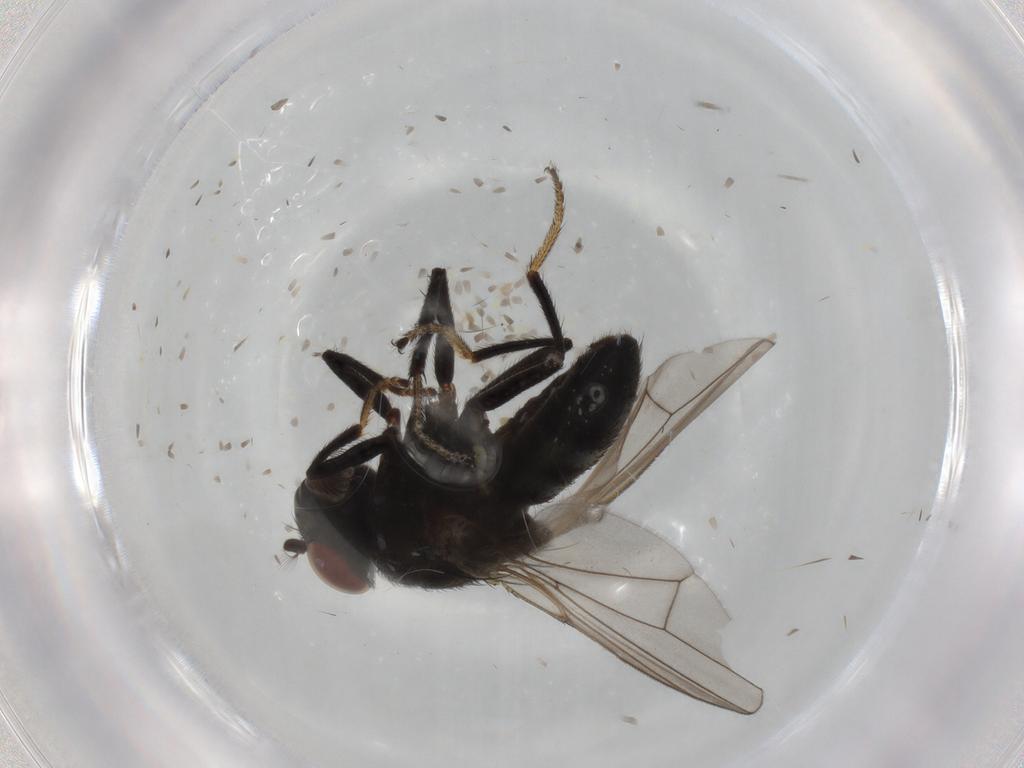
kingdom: Animalia
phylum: Arthropoda
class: Insecta
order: Diptera
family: Ephydridae
